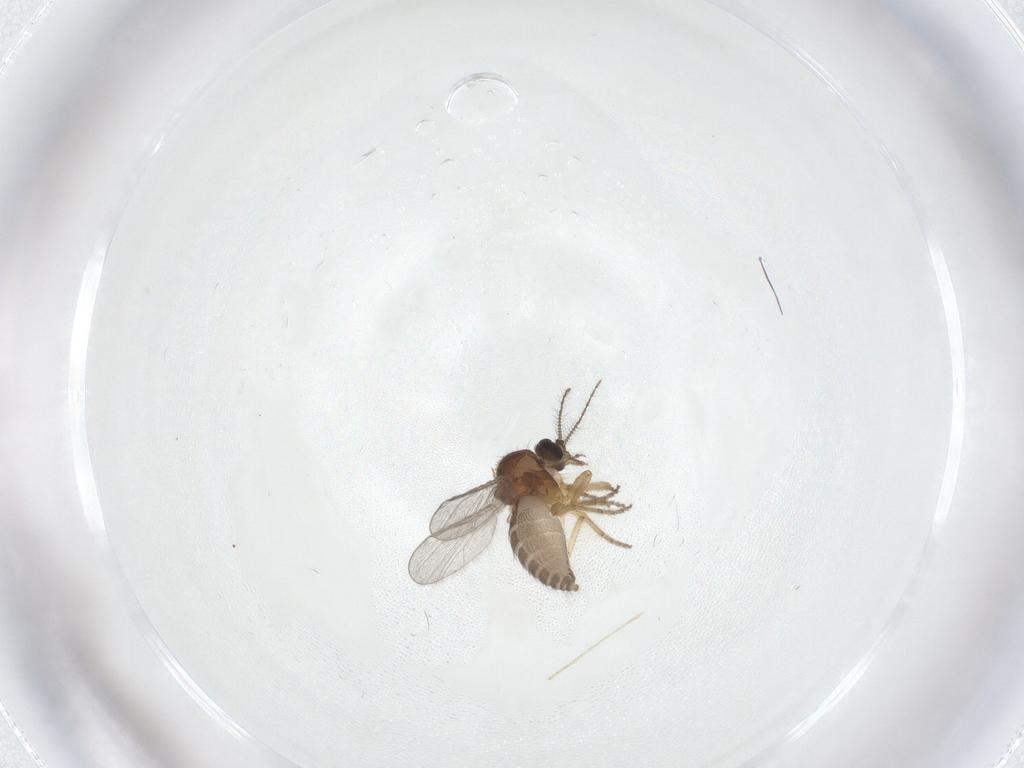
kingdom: Animalia
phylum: Arthropoda
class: Insecta
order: Diptera
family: Ceratopogonidae
